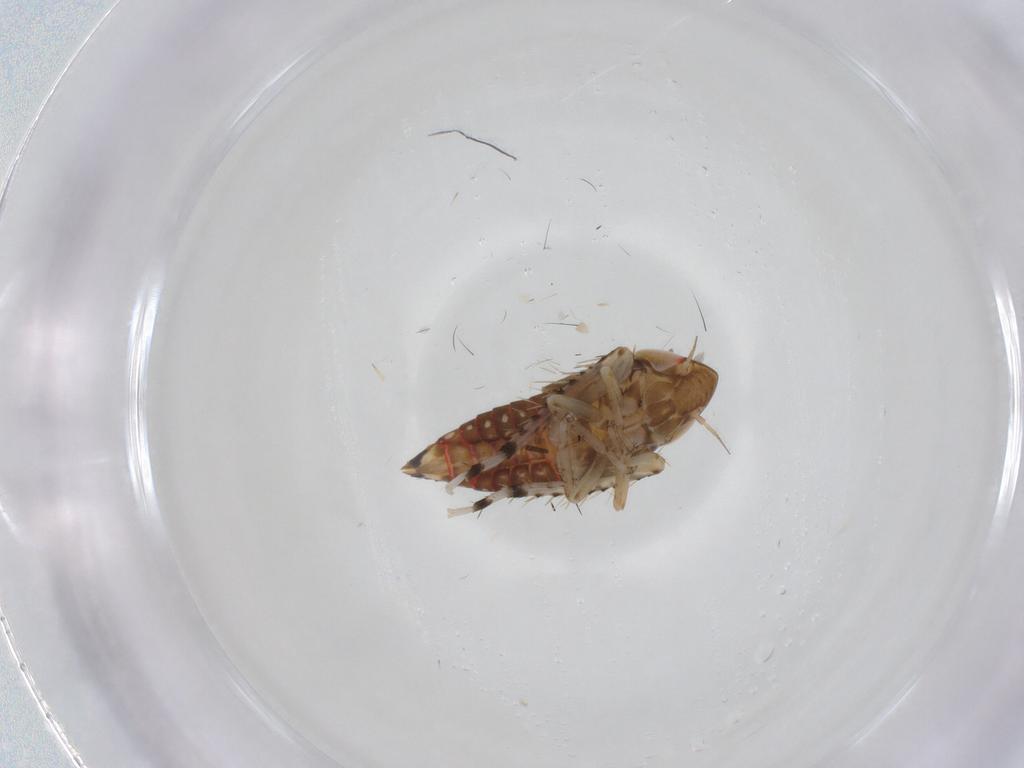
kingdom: Animalia
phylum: Arthropoda
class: Insecta
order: Hemiptera
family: Cicadellidae
